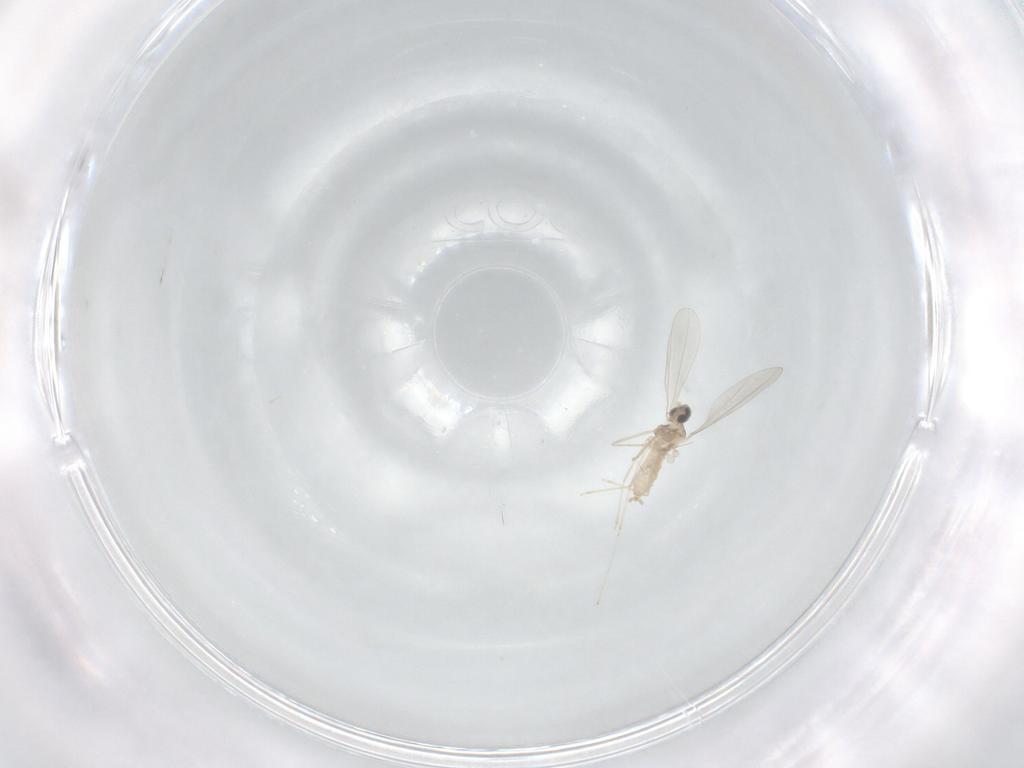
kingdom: Animalia
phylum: Arthropoda
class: Insecta
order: Diptera
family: Cecidomyiidae
